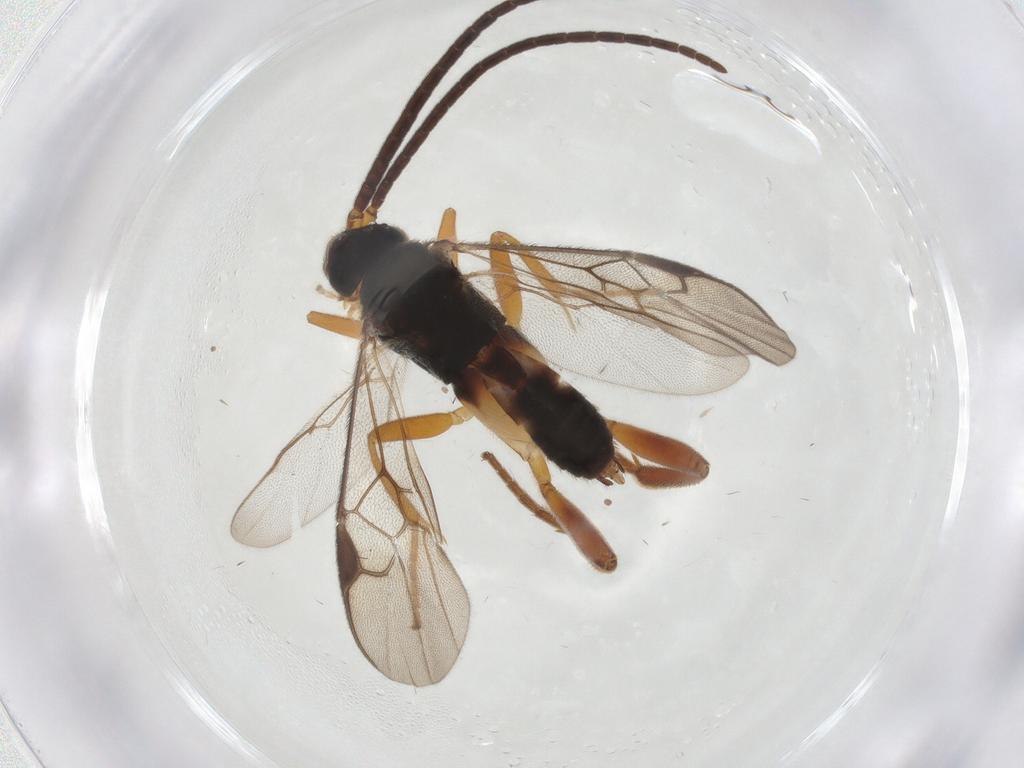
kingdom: Animalia
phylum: Arthropoda
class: Insecta
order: Hymenoptera
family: Braconidae
